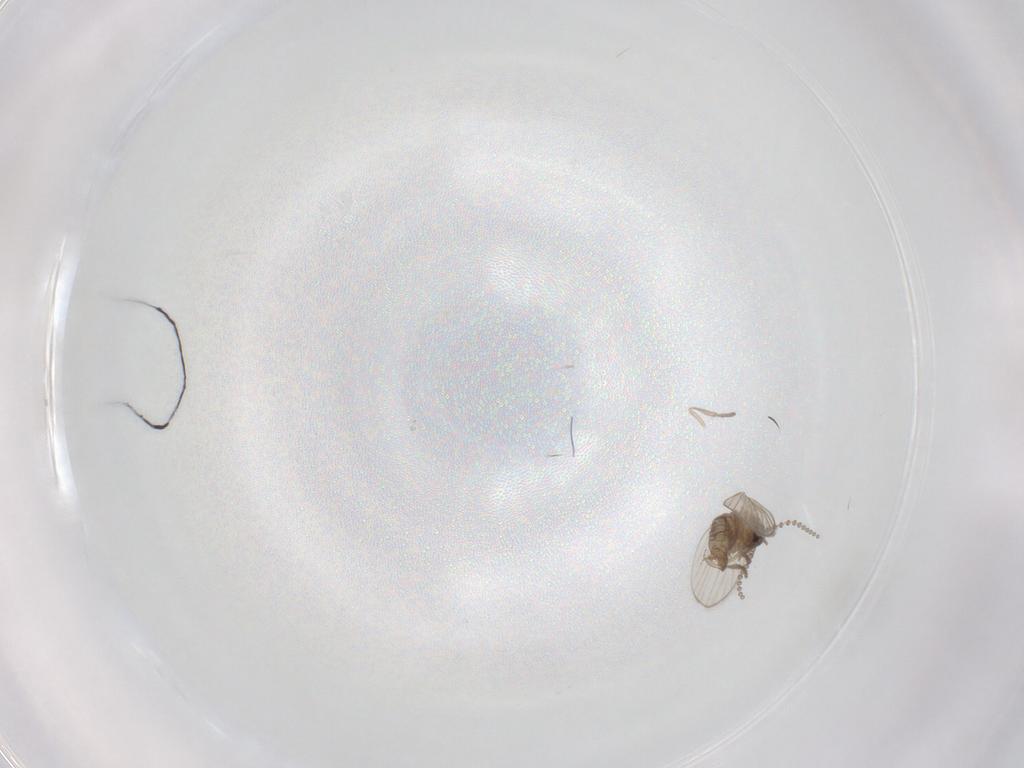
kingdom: Animalia
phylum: Arthropoda
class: Insecta
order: Diptera
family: Psychodidae
